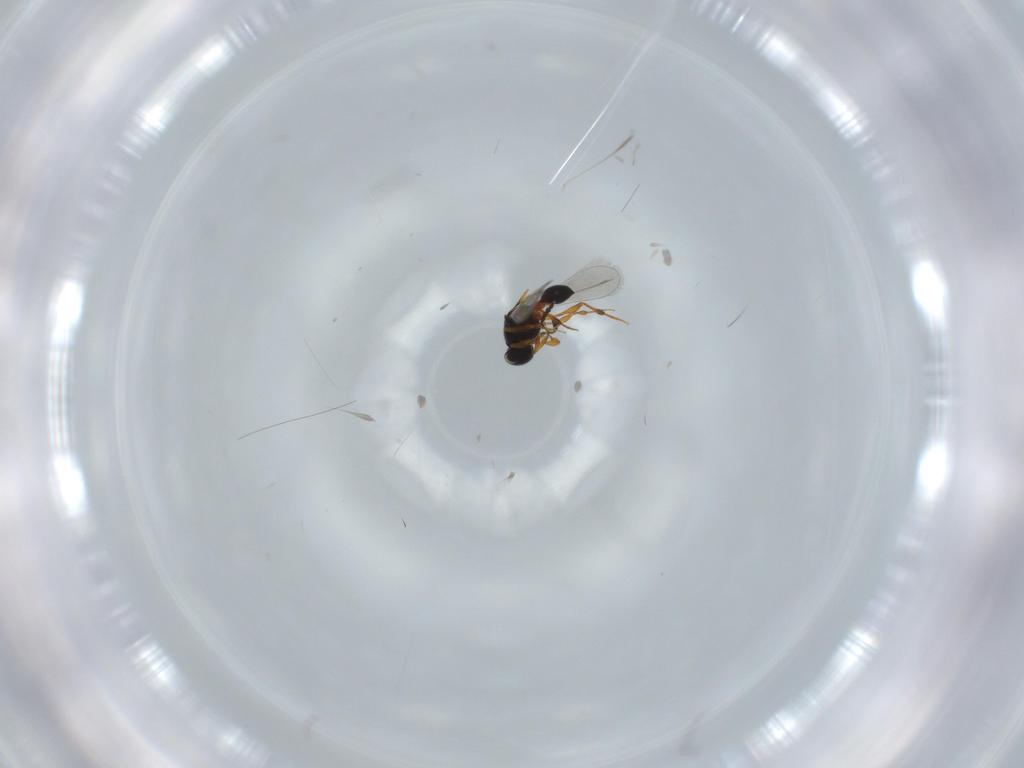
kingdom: Animalia
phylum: Arthropoda
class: Insecta
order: Hymenoptera
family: Platygastridae
